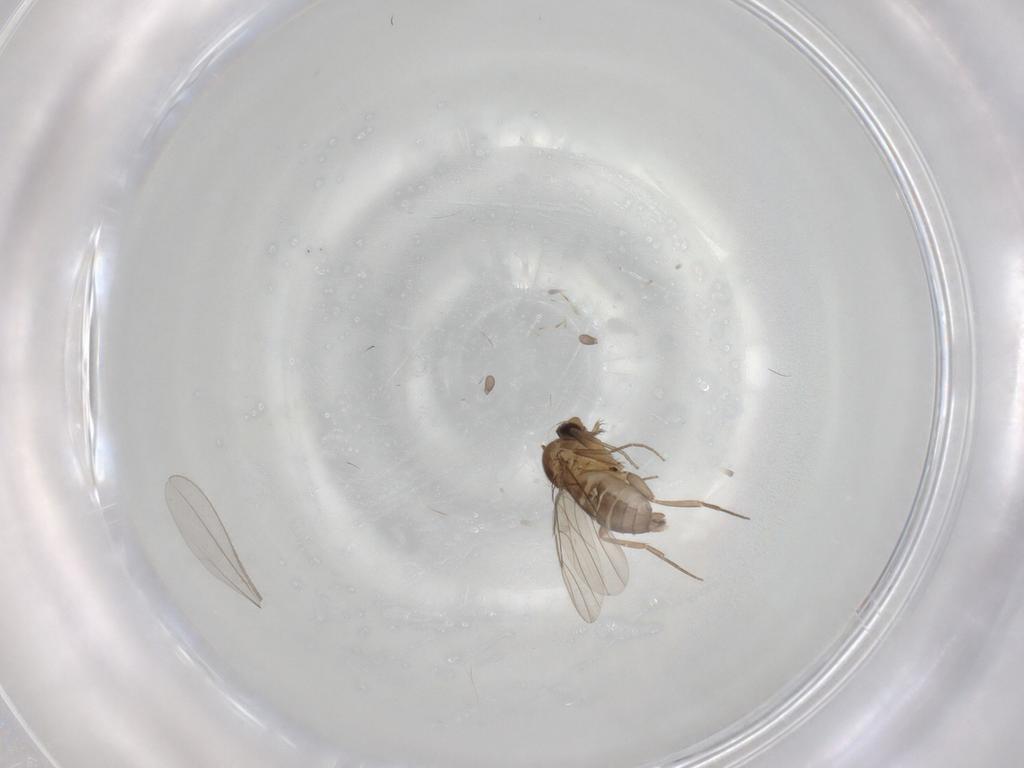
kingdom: Animalia
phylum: Arthropoda
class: Insecta
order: Diptera
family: Phoridae
